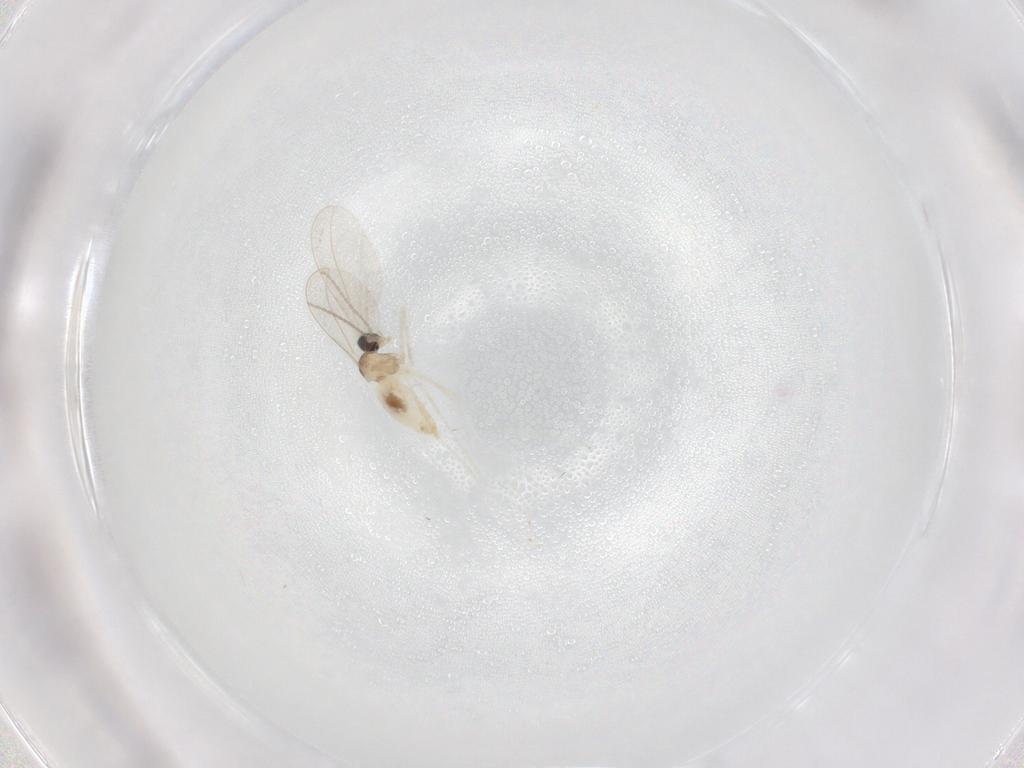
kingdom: Animalia
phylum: Arthropoda
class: Insecta
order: Diptera
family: Cecidomyiidae
